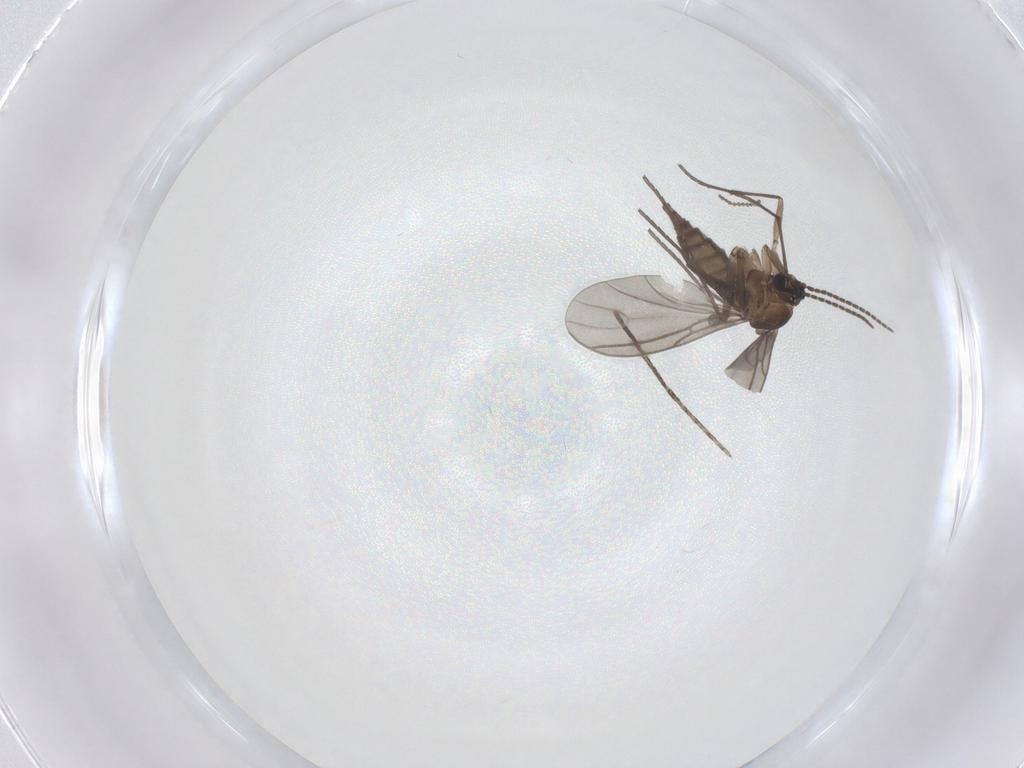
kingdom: Animalia
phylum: Arthropoda
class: Insecta
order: Diptera
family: Sciaridae
